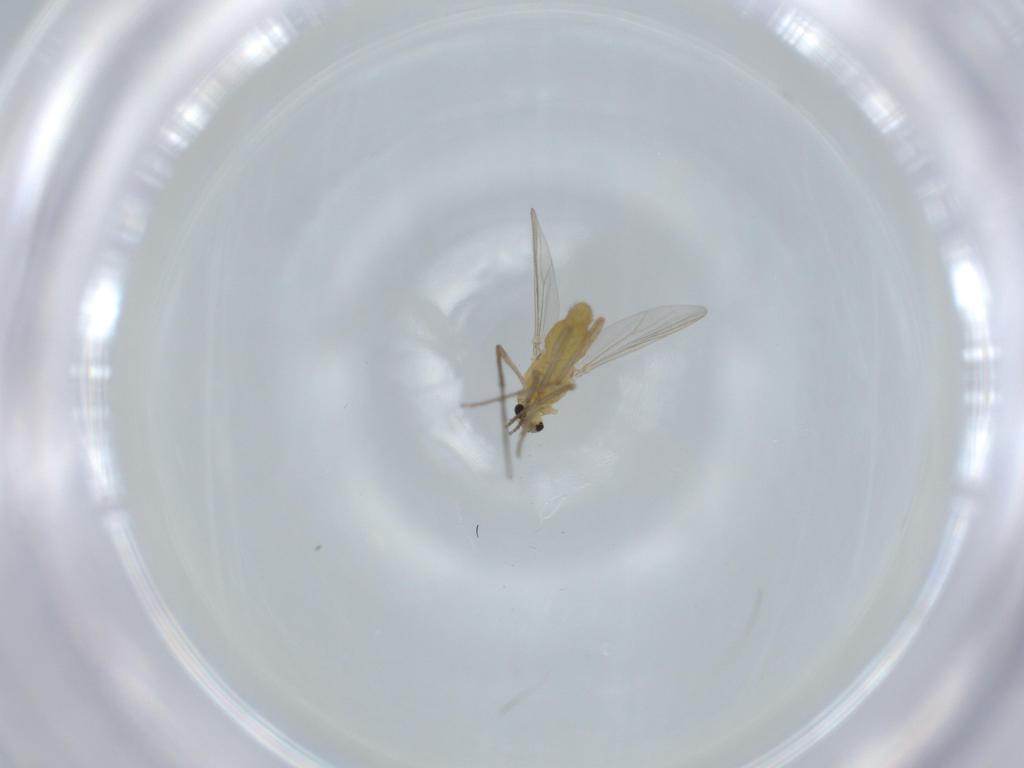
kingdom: Animalia
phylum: Arthropoda
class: Insecta
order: Diptera
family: Chironomidae
